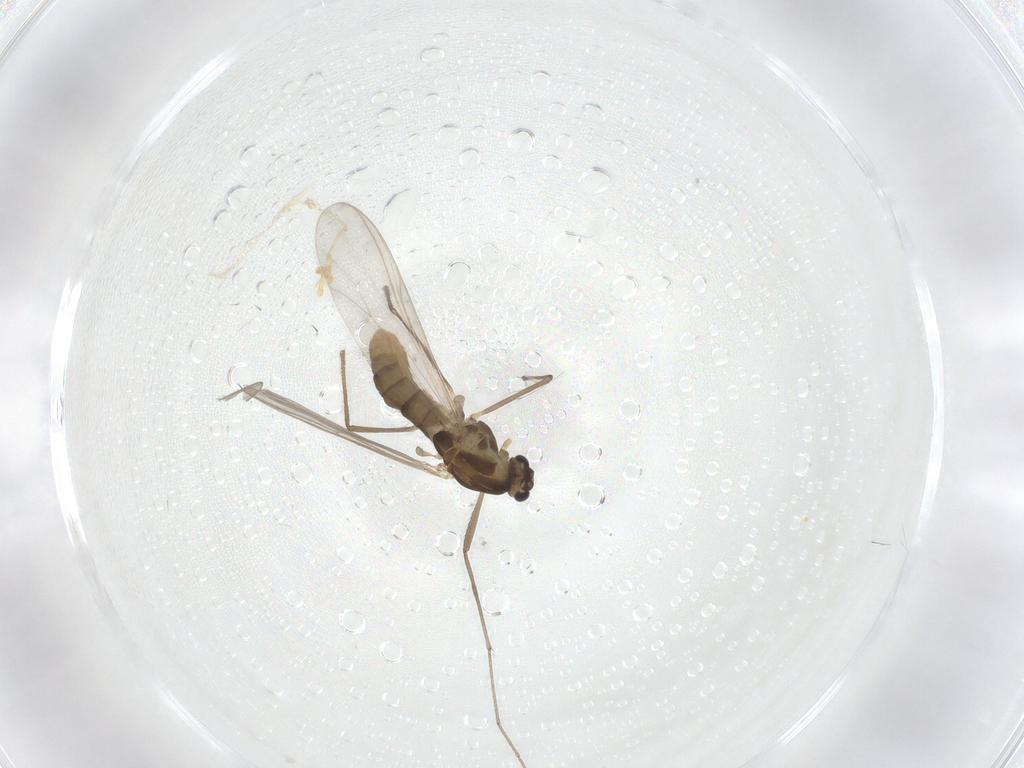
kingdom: Animalia
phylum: Arthropoda
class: Insecta
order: Diptera
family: Chironomidae
